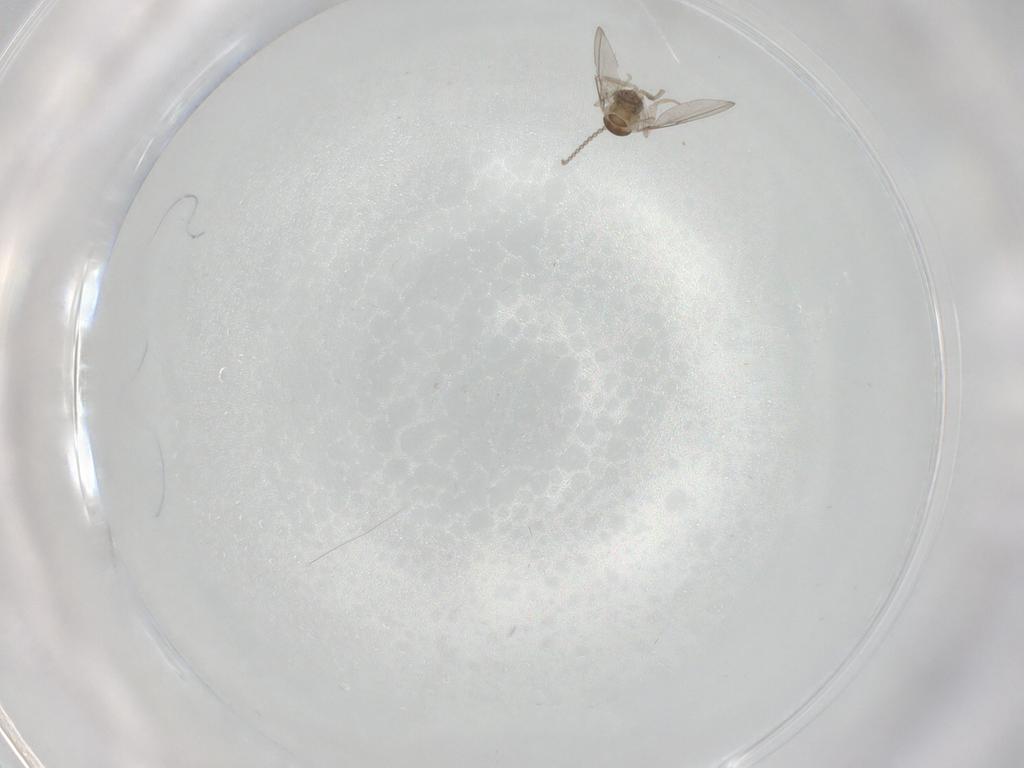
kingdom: Animalia
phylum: Arthropoda
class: Insecta
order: Diptera
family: Cecidomyiidae
